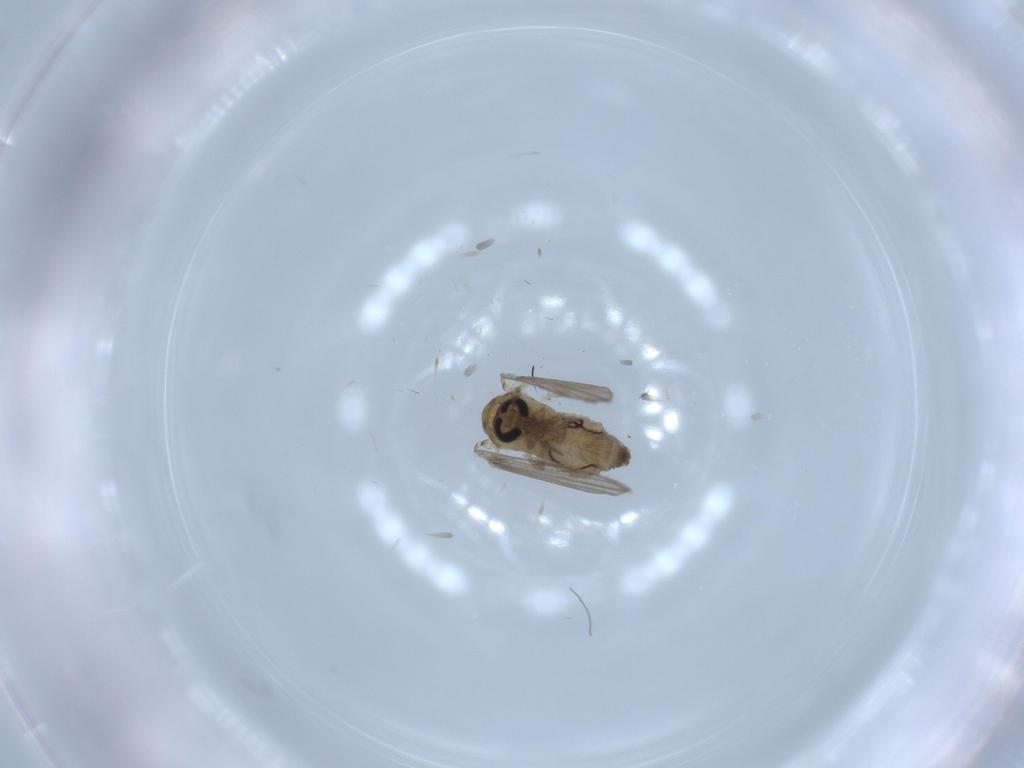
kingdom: Animalia
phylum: Arthropoda
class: Insecta
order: Diptera
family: Psychodidae
